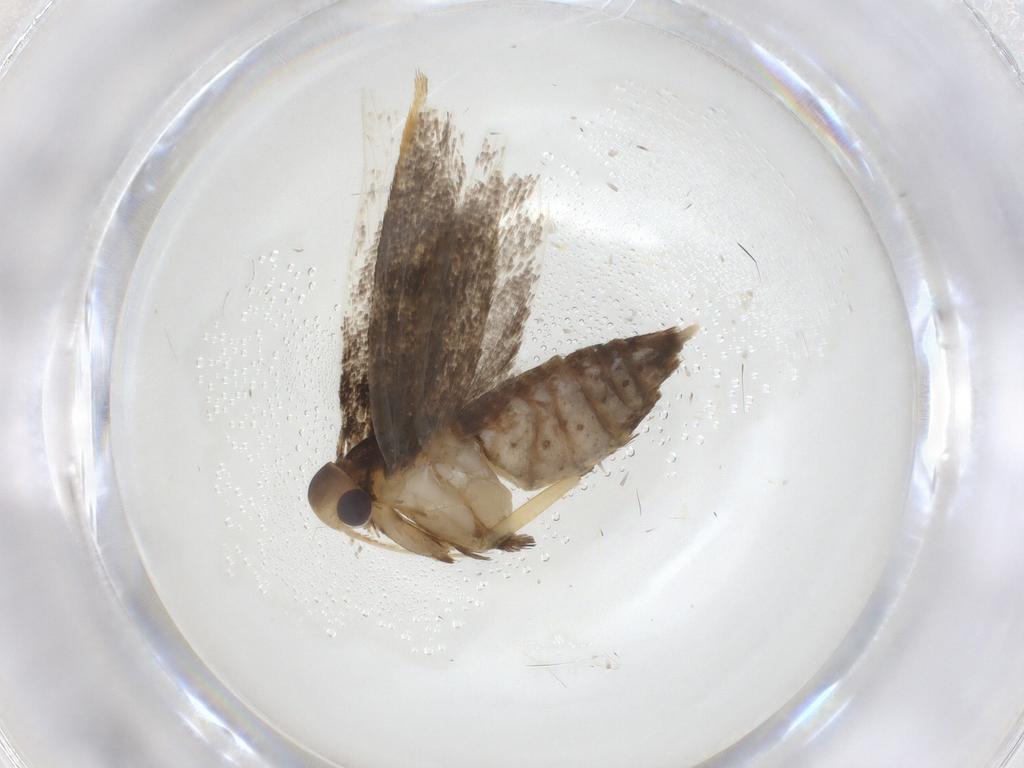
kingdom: Animalia
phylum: Arthropoda
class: Insecta
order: Lepidoptera
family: Lecithoceridae
